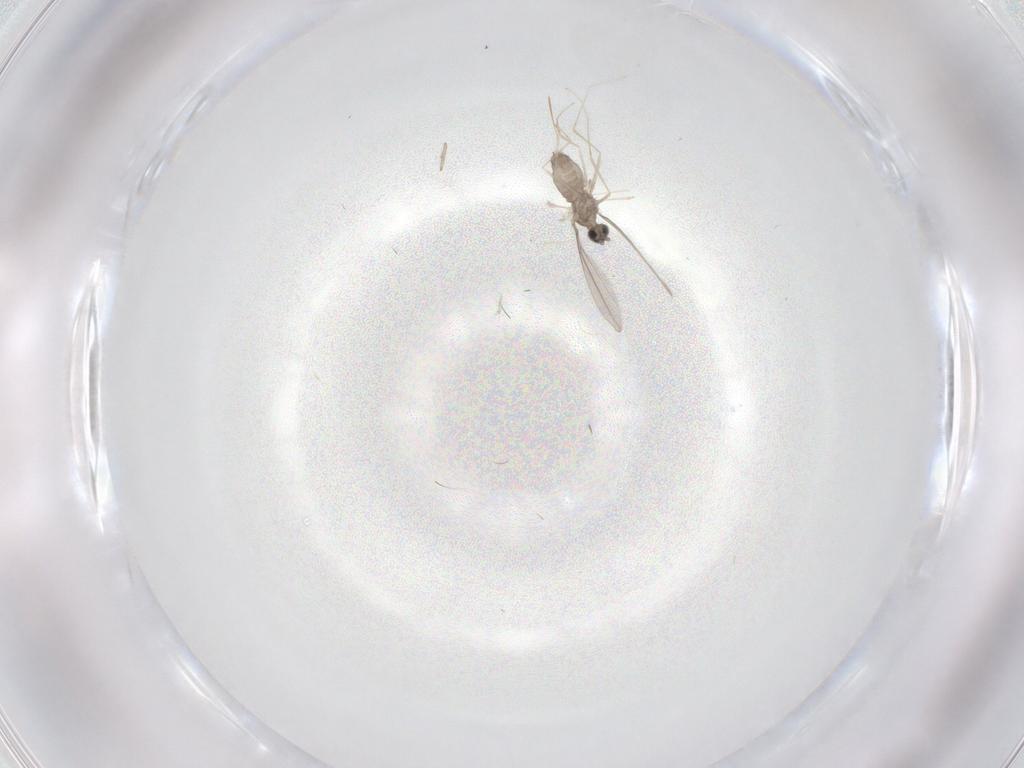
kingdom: Animalia
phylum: Arthropoda
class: Insecta
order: Diptera
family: Cecidomyiidae
